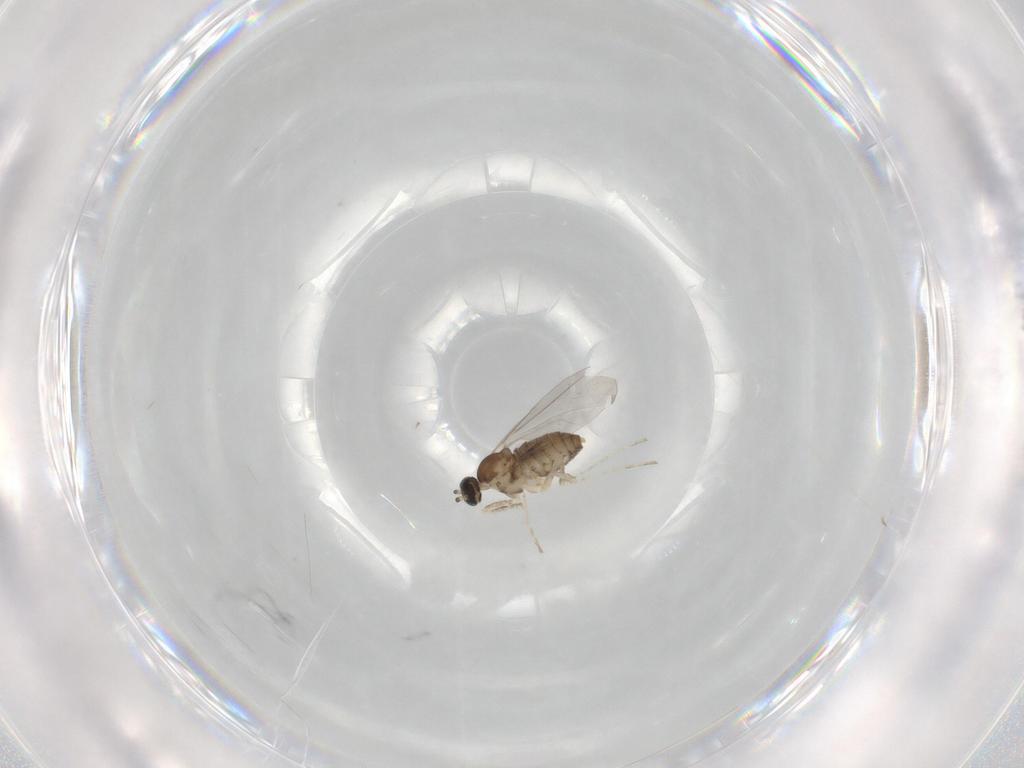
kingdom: Animalia
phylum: Arthropoda
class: Insecta
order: Diptera
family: Cecidomyiidae
